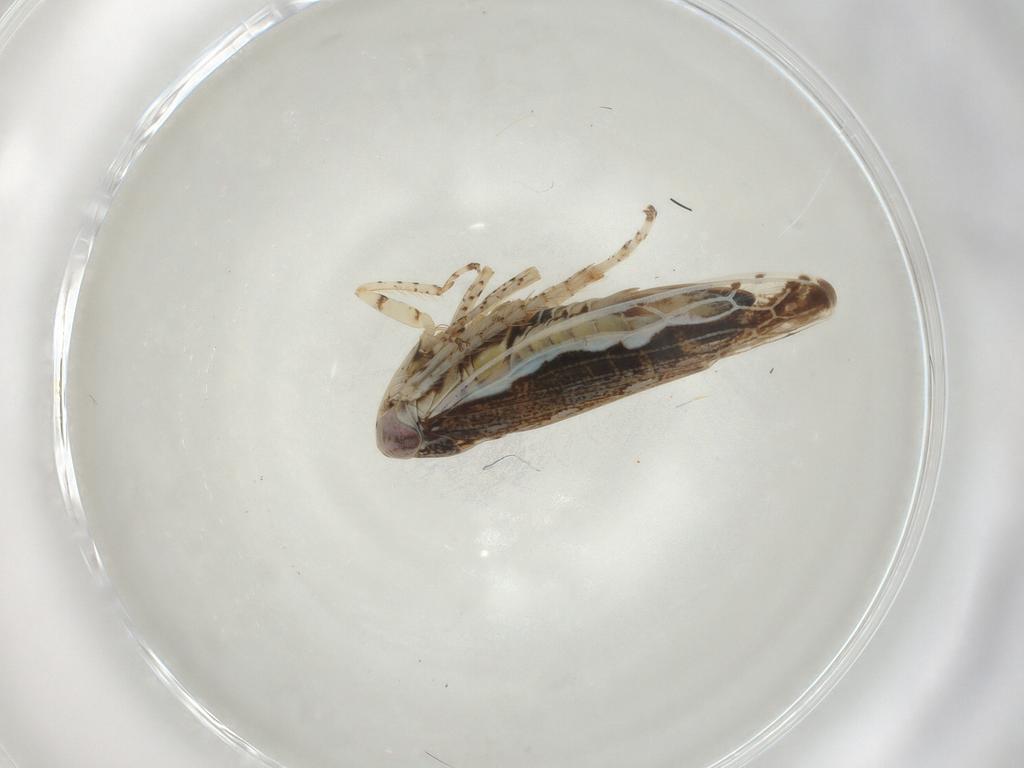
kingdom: Animalia
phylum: Arthropoda
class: Insecta
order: Hemiptera
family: Cicadellidae
